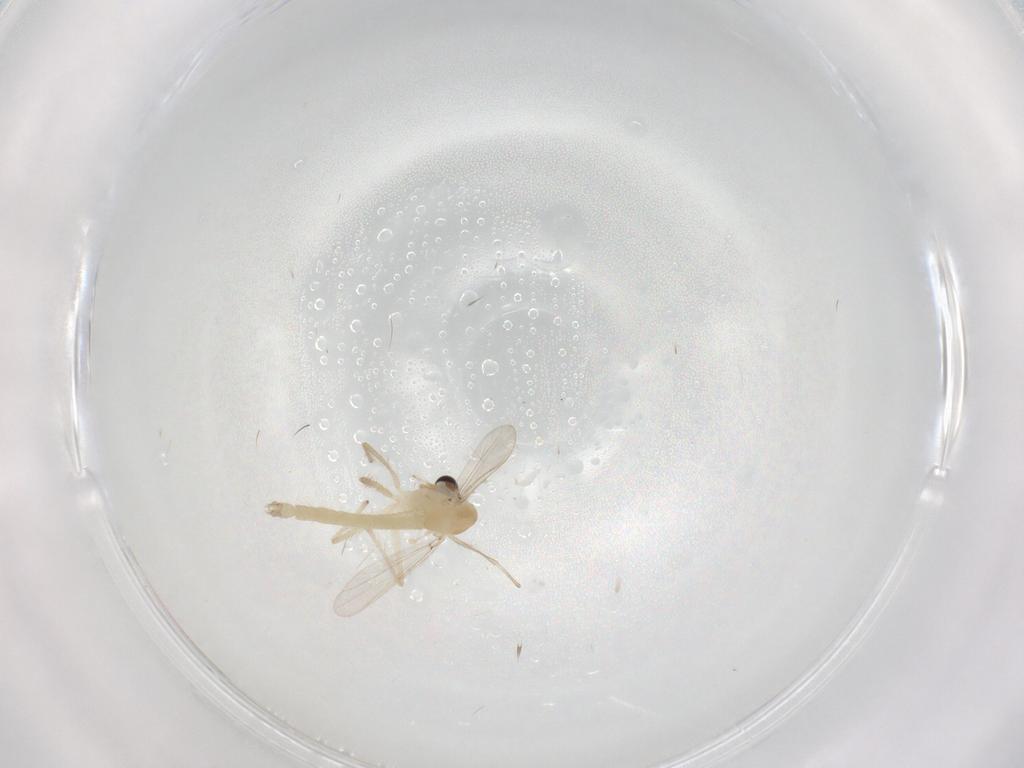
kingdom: Animalia
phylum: Arthropoda
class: Insecta
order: Diptera
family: Chironomidae
